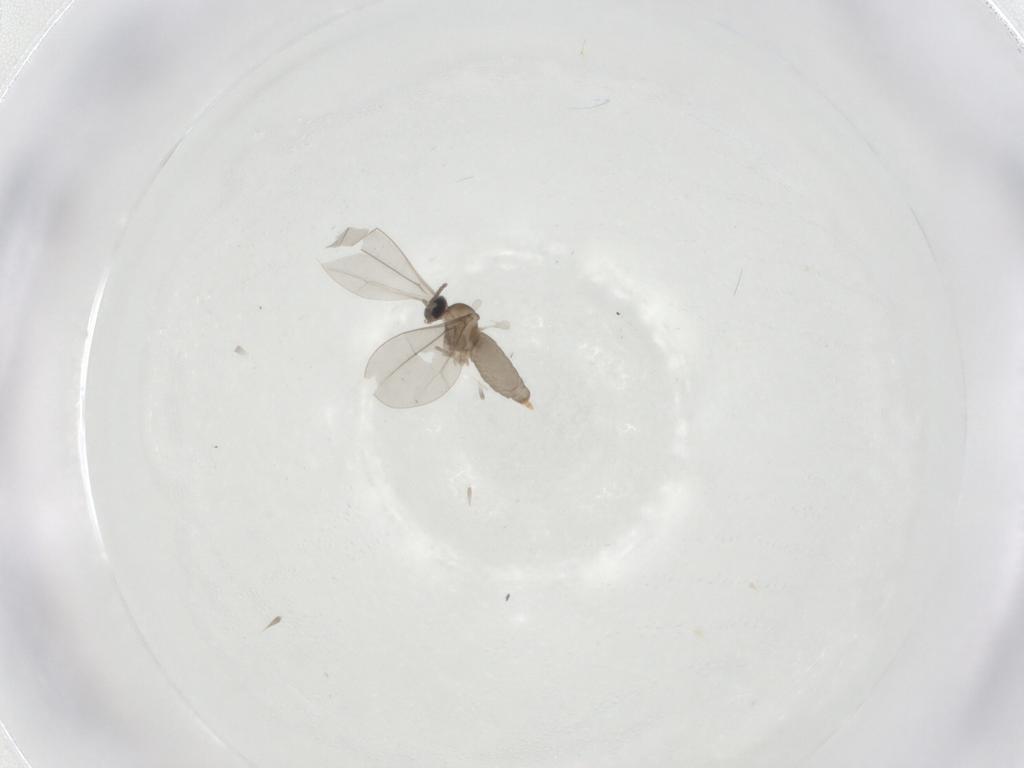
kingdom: Animalia
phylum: Arthropoda
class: Insecta
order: Diptera
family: Cecidomyiidae
